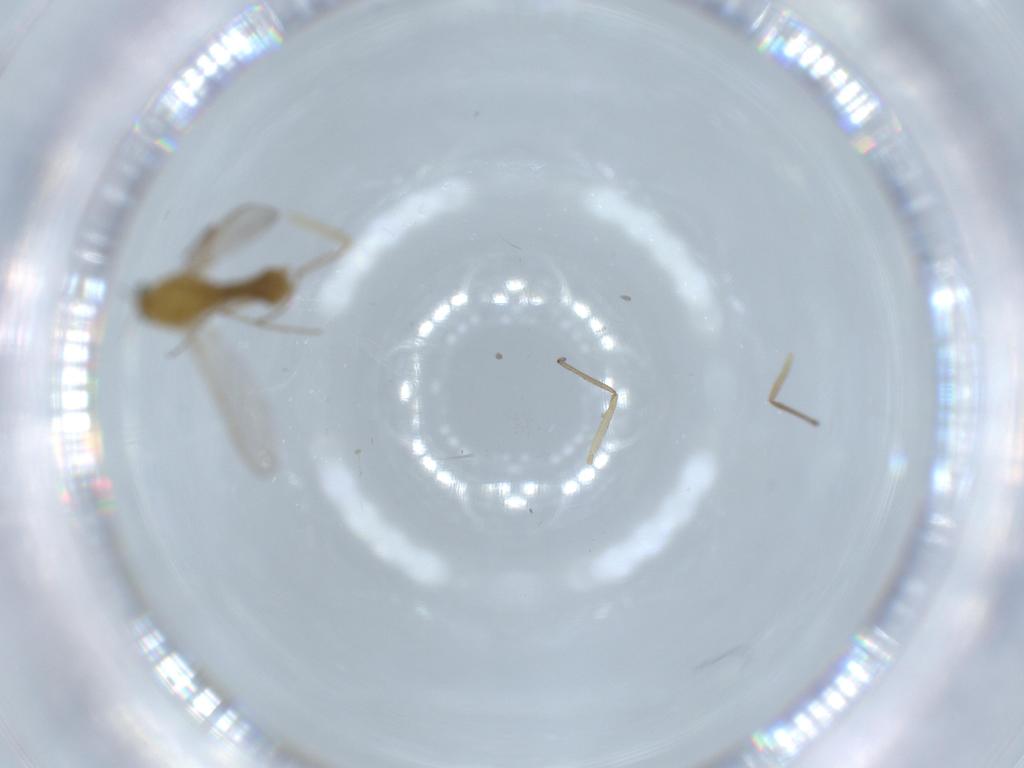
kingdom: Animalia
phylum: Arthropoda
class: Insecta
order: Diptera
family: Chironomidae
